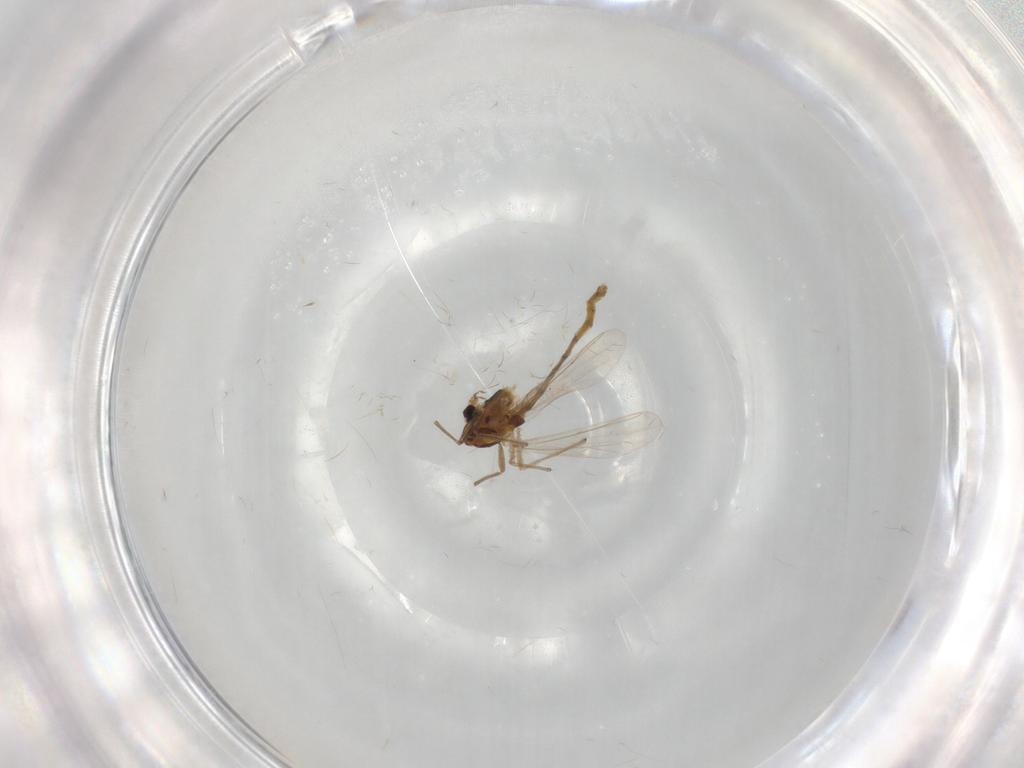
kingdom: Animalia
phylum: Arthropoda
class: Insecta
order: Diptera
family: Chironomidae
